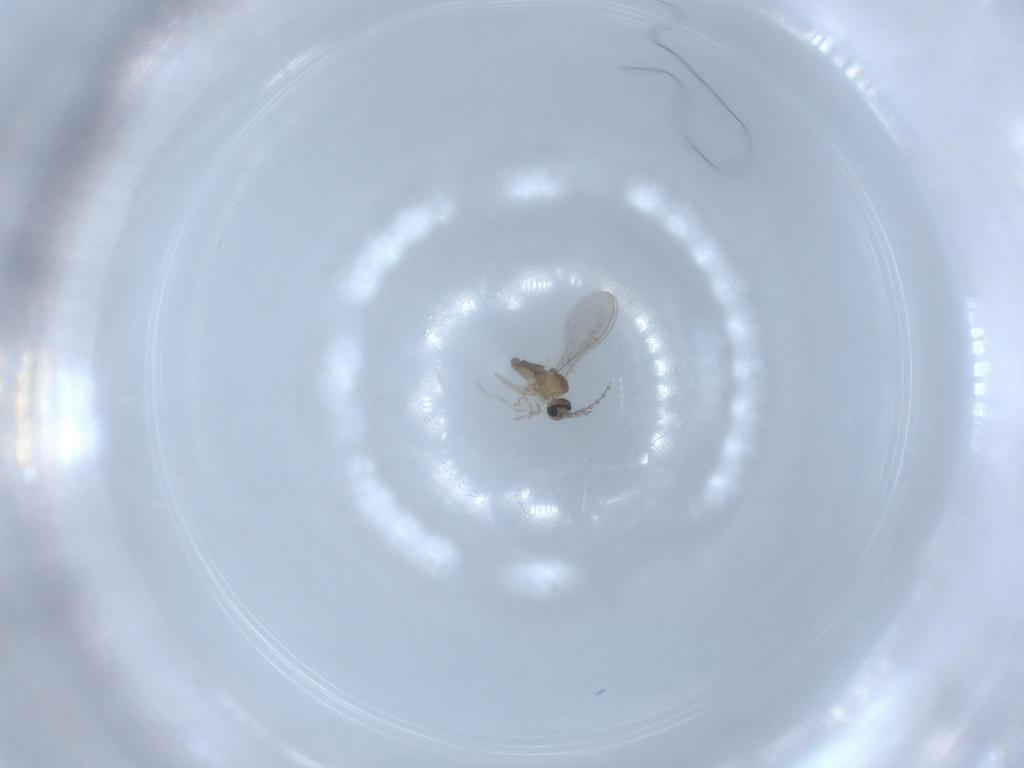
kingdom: Animalia
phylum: Arthropoda
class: Insecta
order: Diptera
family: Cecidomyiidae
